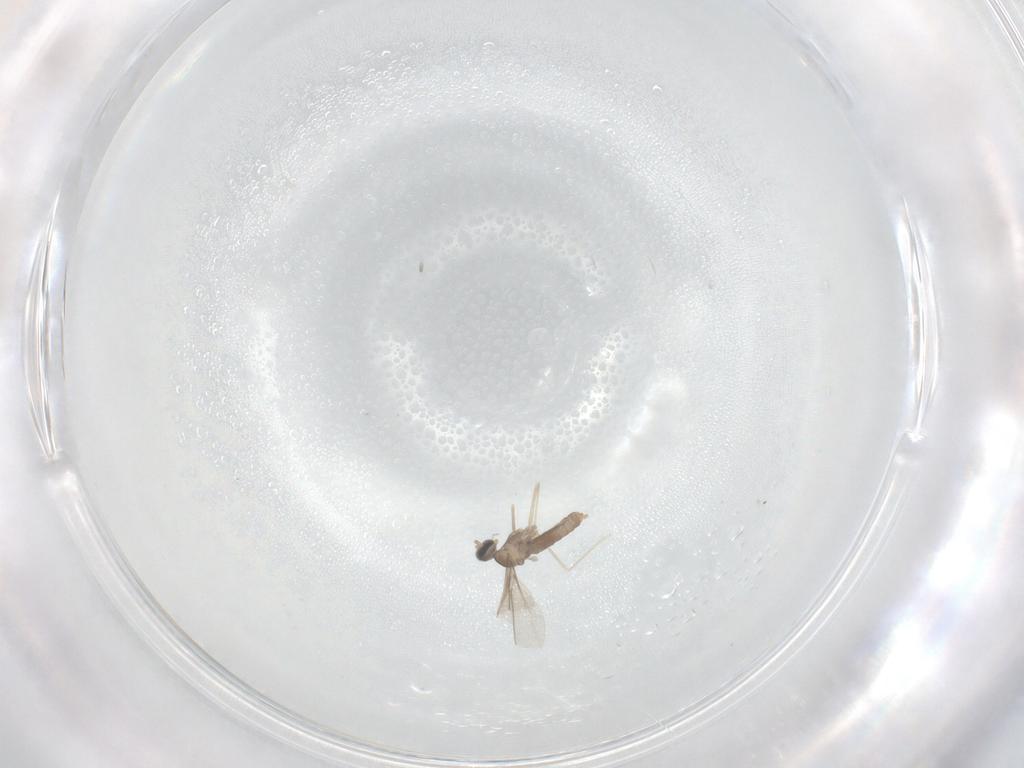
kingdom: Animalia
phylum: Arthropoda
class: Insecta
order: Diptera
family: Cecidomyiidae
